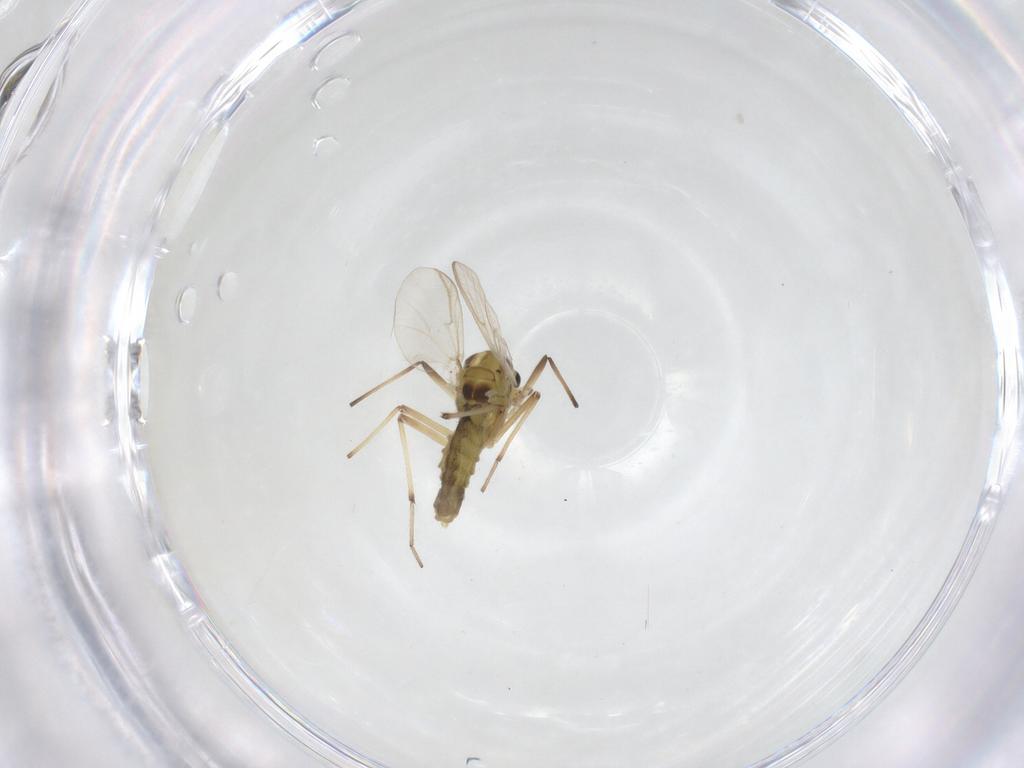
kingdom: Animalia
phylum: Arthropoda
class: Insecta
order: Diptera
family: Chironomidae
